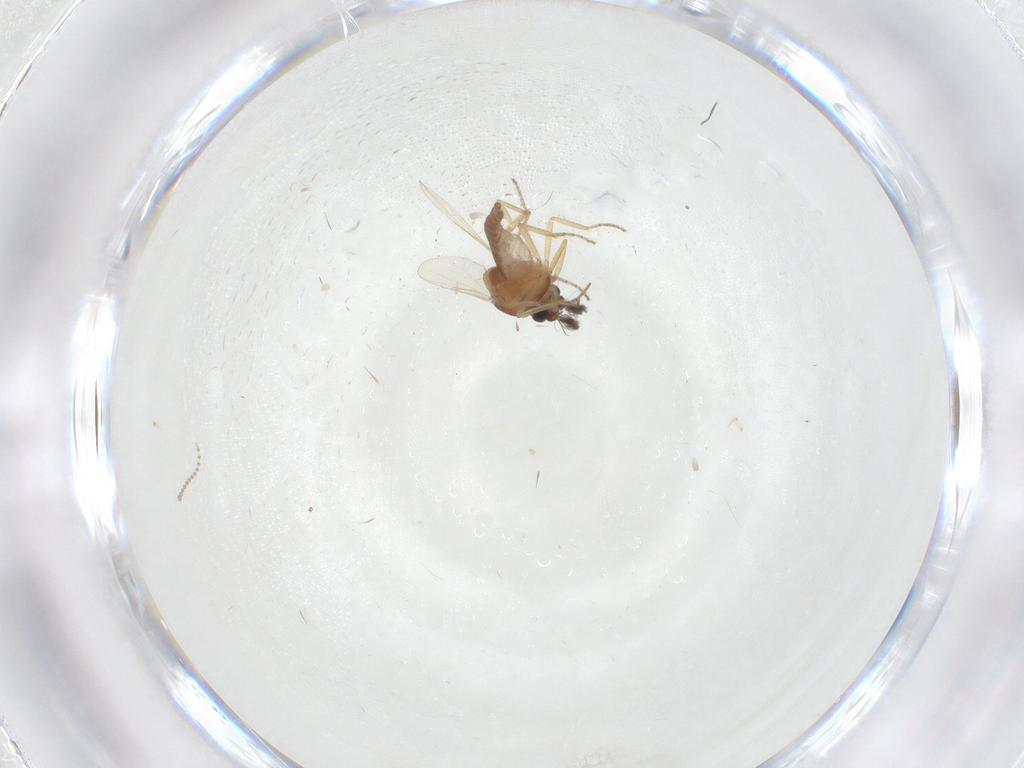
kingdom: Animalia
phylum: Arthropoda
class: Insecta
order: Diptera
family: Ceratopogonidae
